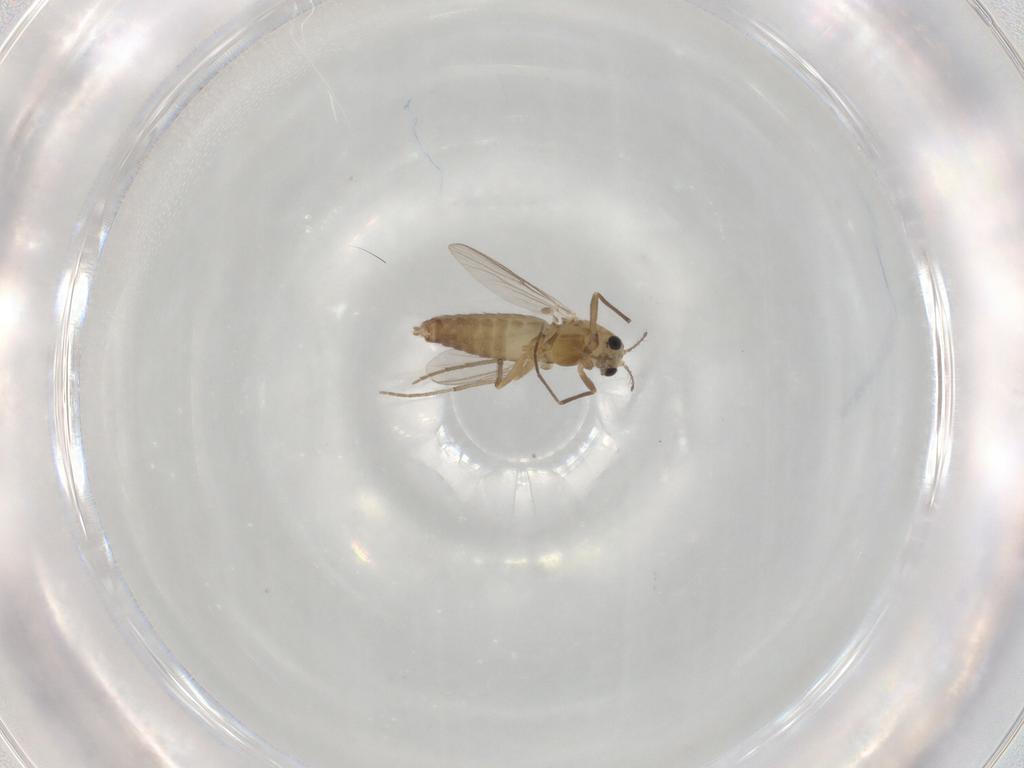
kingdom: Animalia
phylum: Arthropoda
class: Insecta
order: Diptera
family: Chironomidae
